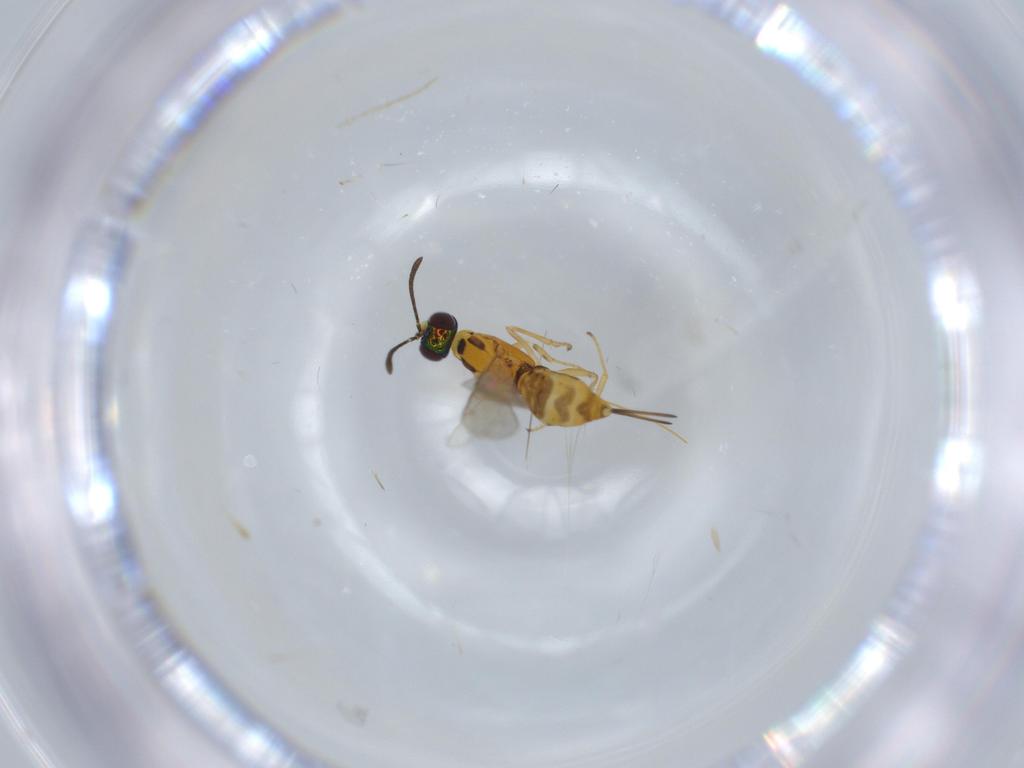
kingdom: Animalia
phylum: Arthropoda
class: Insecta
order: Hymenoptera
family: Eupelmidae
